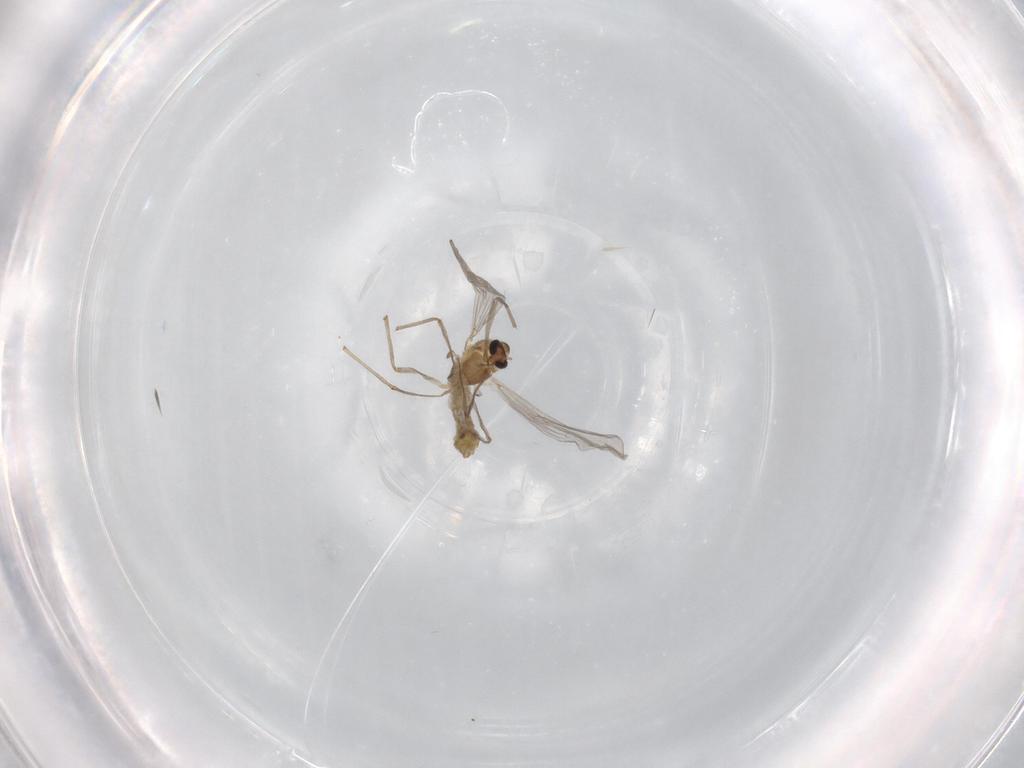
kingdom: Animalia
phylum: Arthropoda
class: Insecta
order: Diptera
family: Chironomidae
